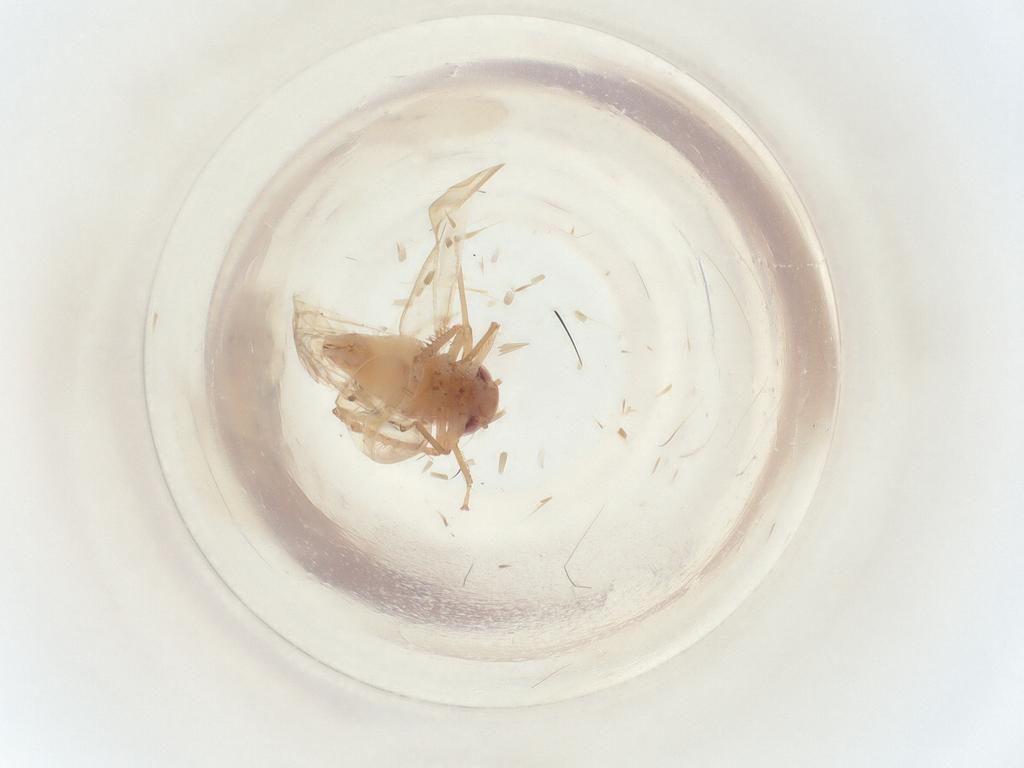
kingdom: Animalia
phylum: Arthropoda
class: Insecta
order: Hemiptera
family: Cicadellidae
